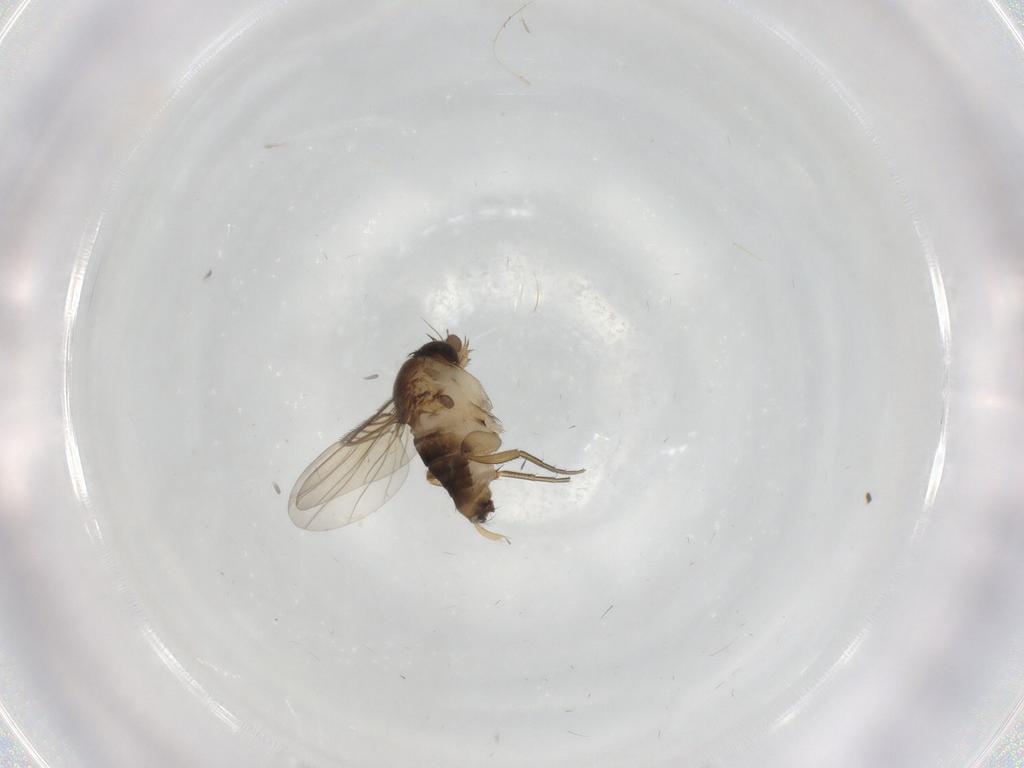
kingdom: Animalia
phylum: Arthropoda
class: Insecta
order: Diptera
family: Phoridae
